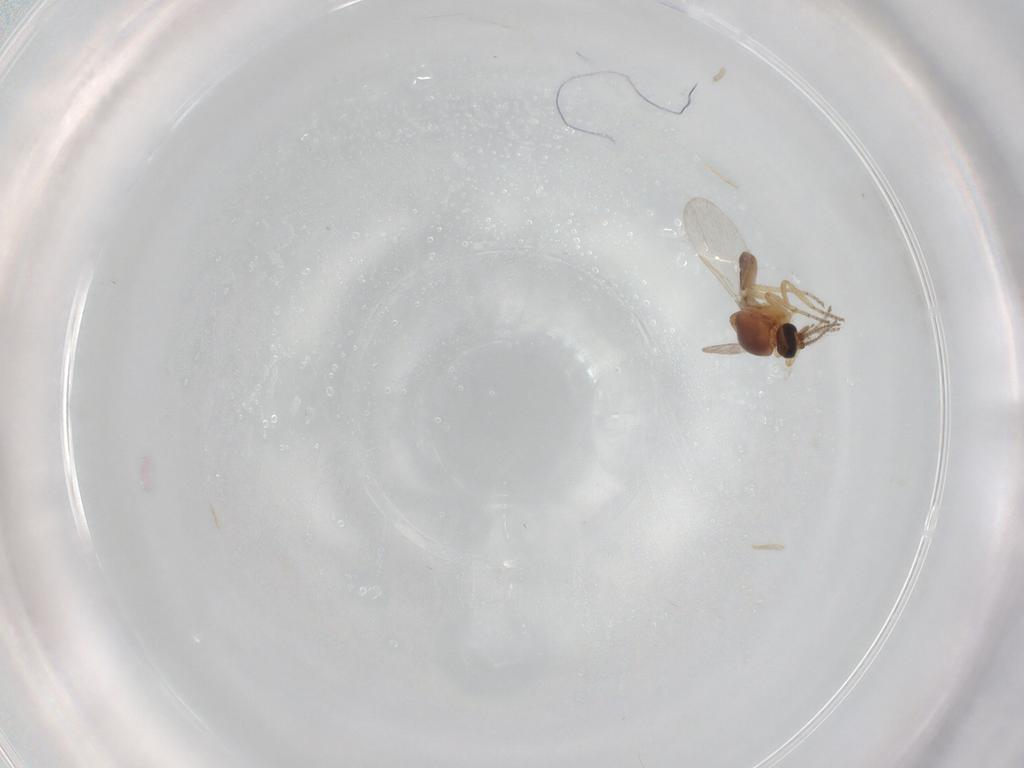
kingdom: Animalia
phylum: Arthropoda
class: Insecta
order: Diptera
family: Ceratopogonidae
